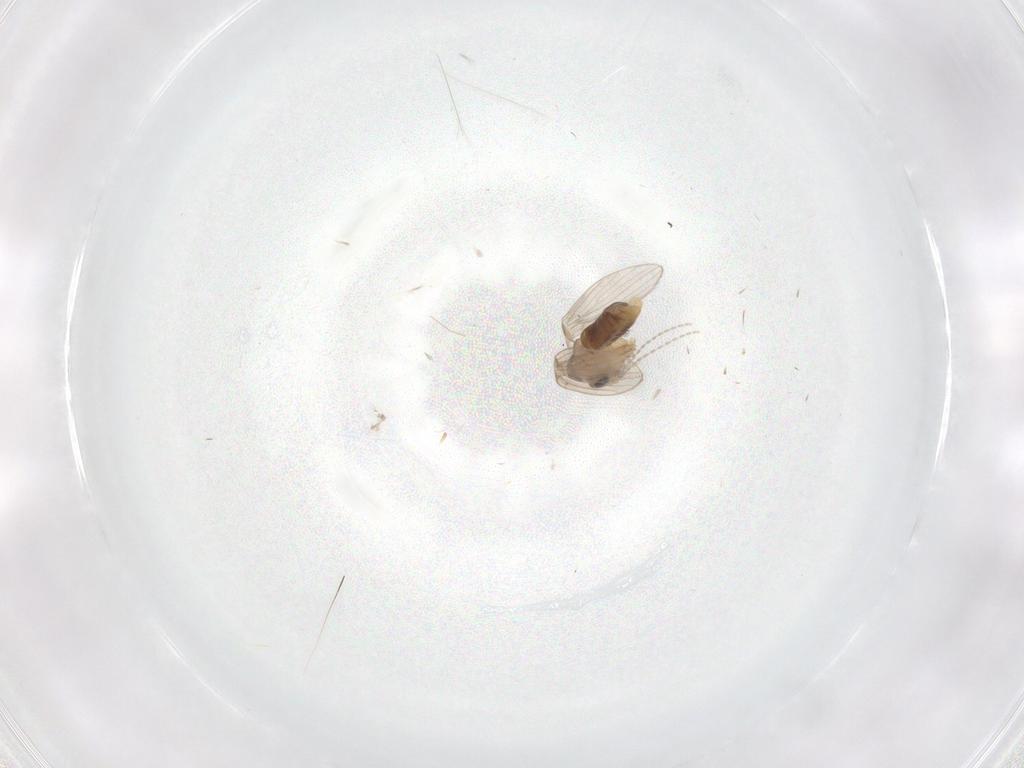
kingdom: Animalia
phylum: Arthropoda
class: Insecta
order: Diptera
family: Psychodidae
